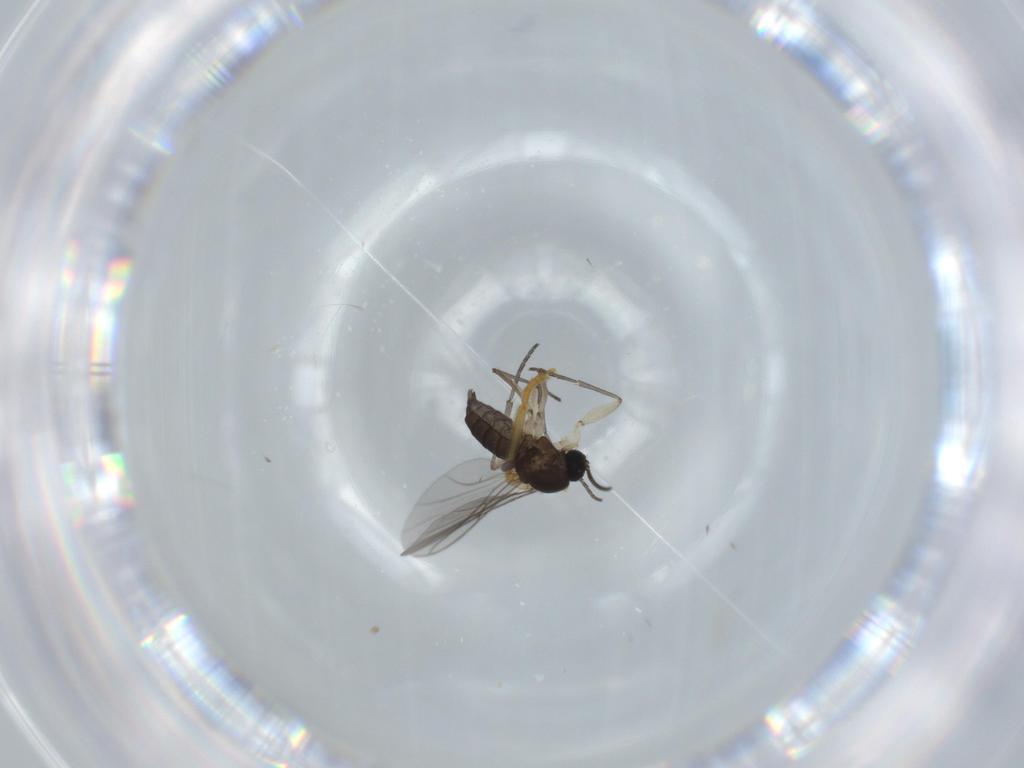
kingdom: Animalia
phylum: Arthropoda
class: Insecta
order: Diptera
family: Sciaridae
